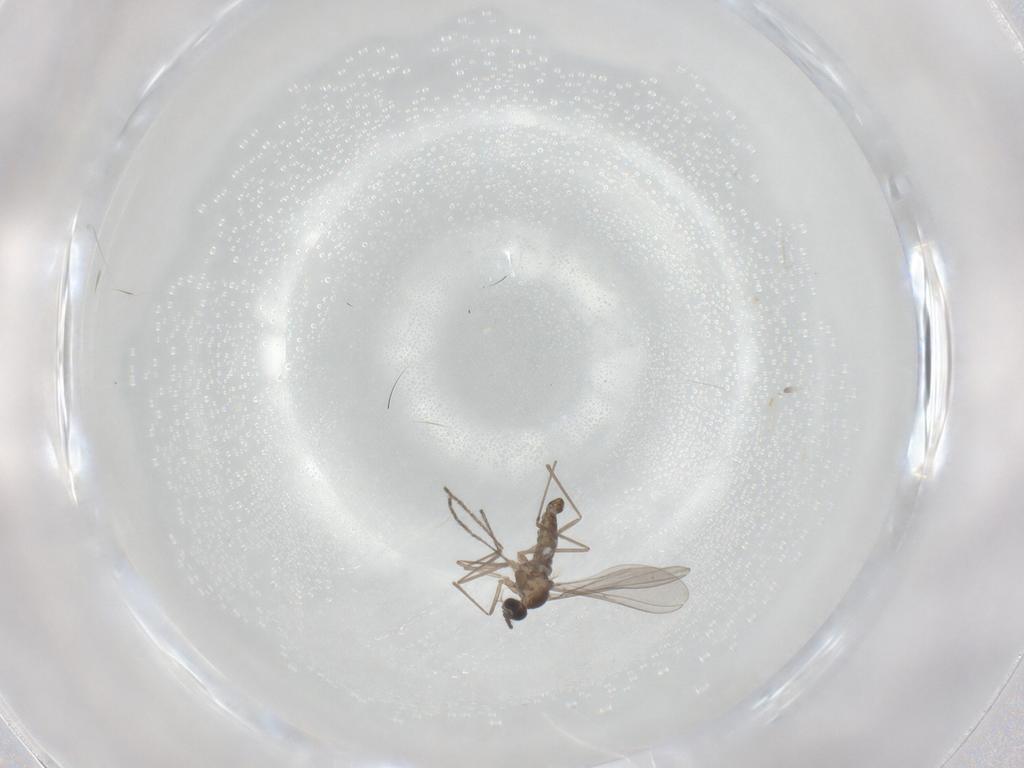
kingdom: Animalia
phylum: Arthropoda
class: Insecta
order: Diptera
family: Cecidomyiidae
